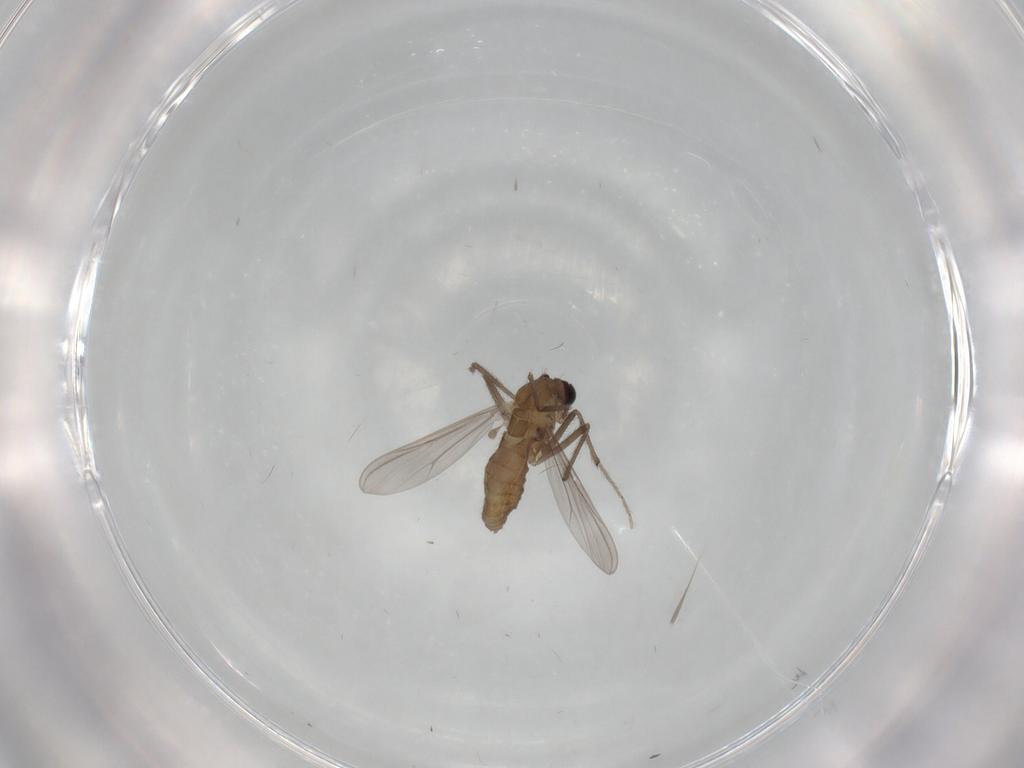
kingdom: Animalia
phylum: Arthropoda
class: Insecta
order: Diptera
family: Chironomidae
